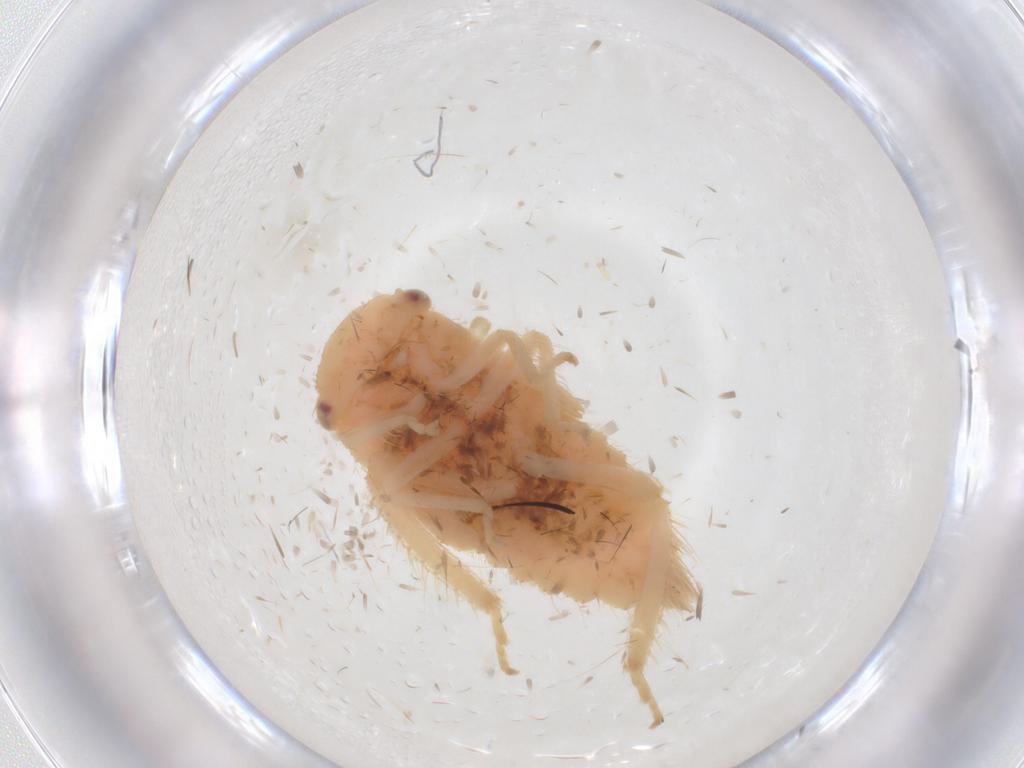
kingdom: Animalia
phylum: Arthropoda
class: Insecta
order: Hemiptera
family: Cicadellidae
